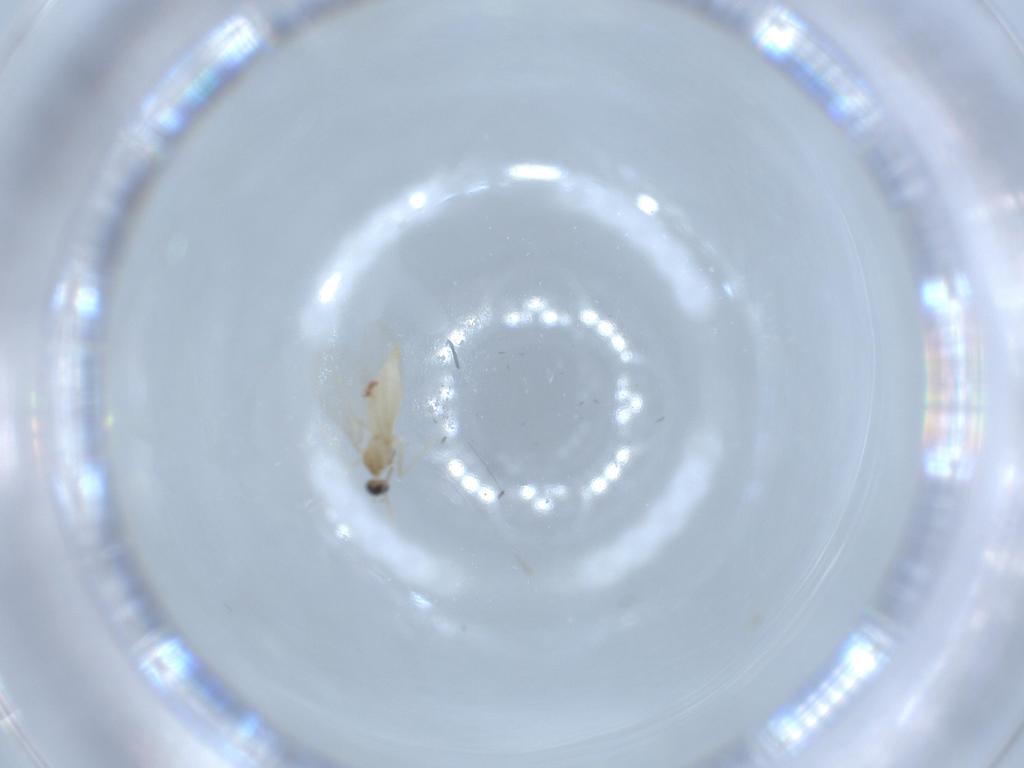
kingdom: Animalia
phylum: Arthropoda
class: Insecta
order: Diptera
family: Cecidomyiidae
